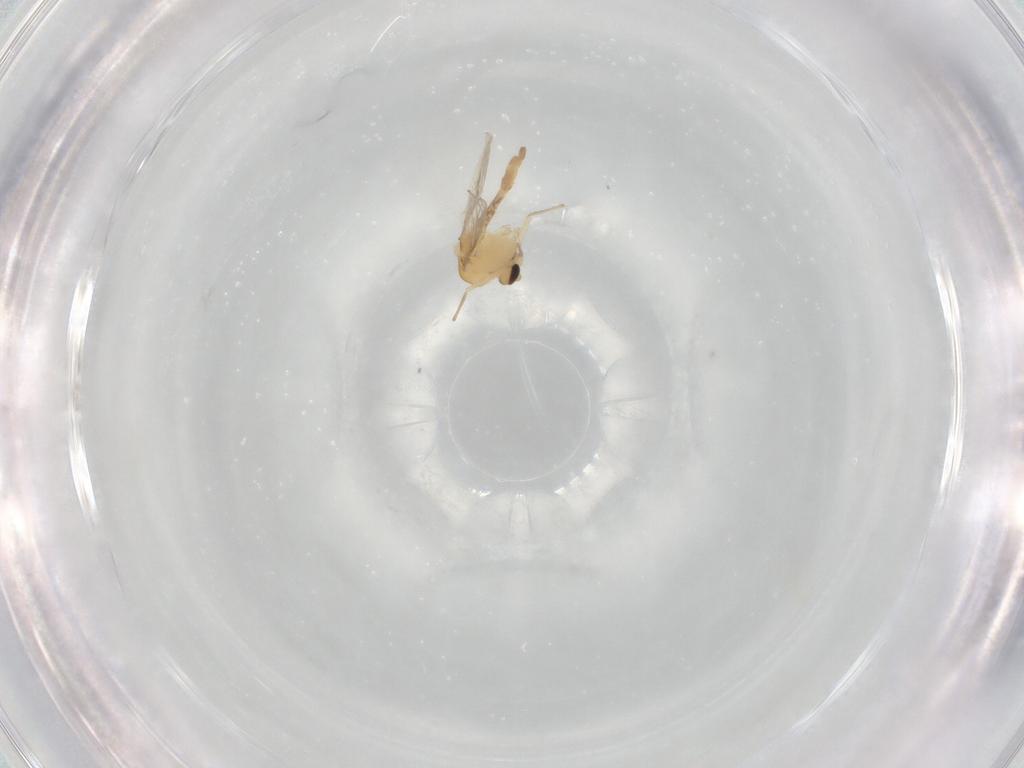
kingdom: Animalia
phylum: Arthropoda
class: Insecta
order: Diptera
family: Chironomidae
